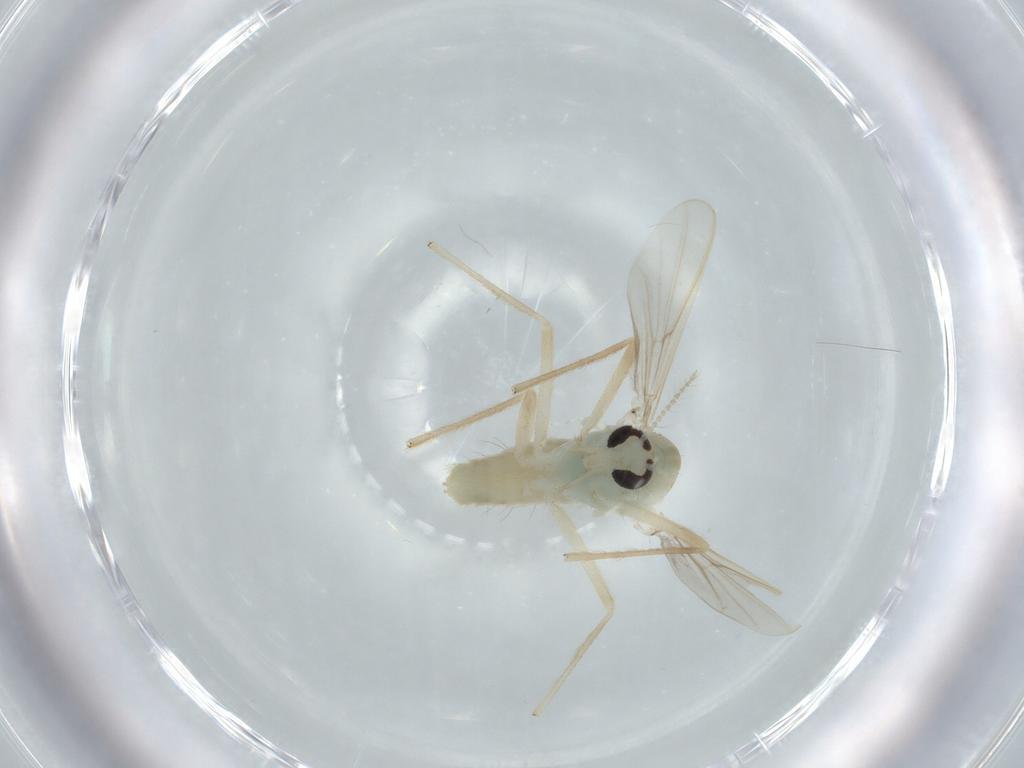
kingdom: Animalia
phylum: Arthropoda
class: Insecta
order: Diptera
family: Chironomidae
